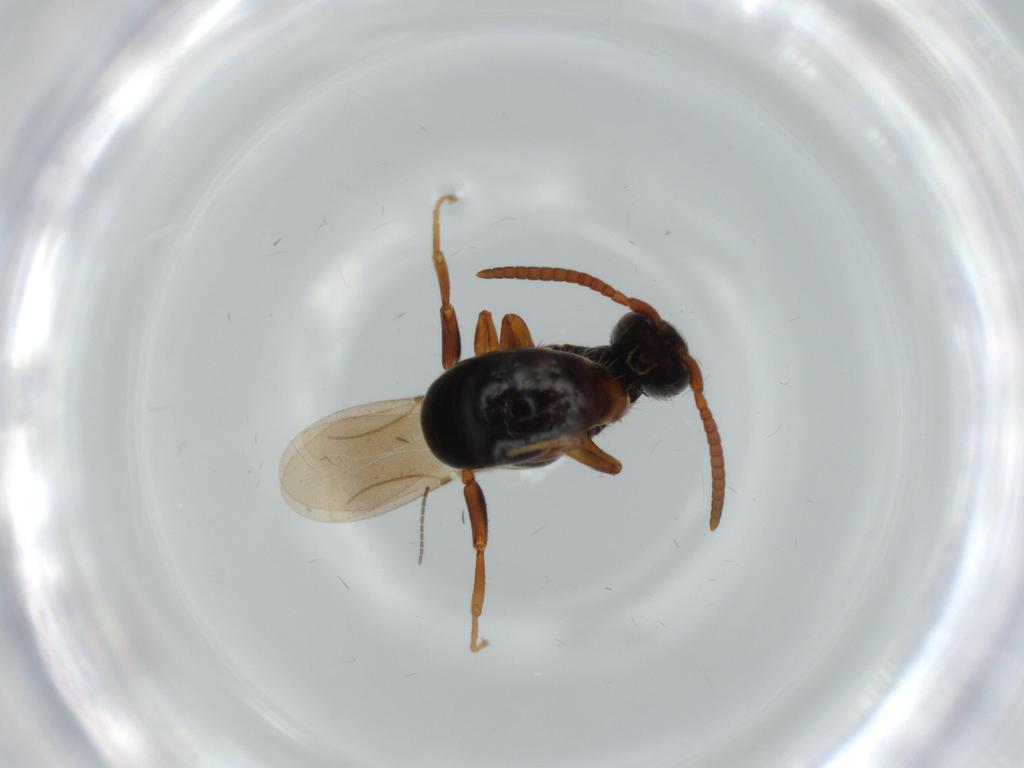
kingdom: Animalia
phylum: Arthropoda
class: Insecta
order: Hymenoptera
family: Bethylidae
